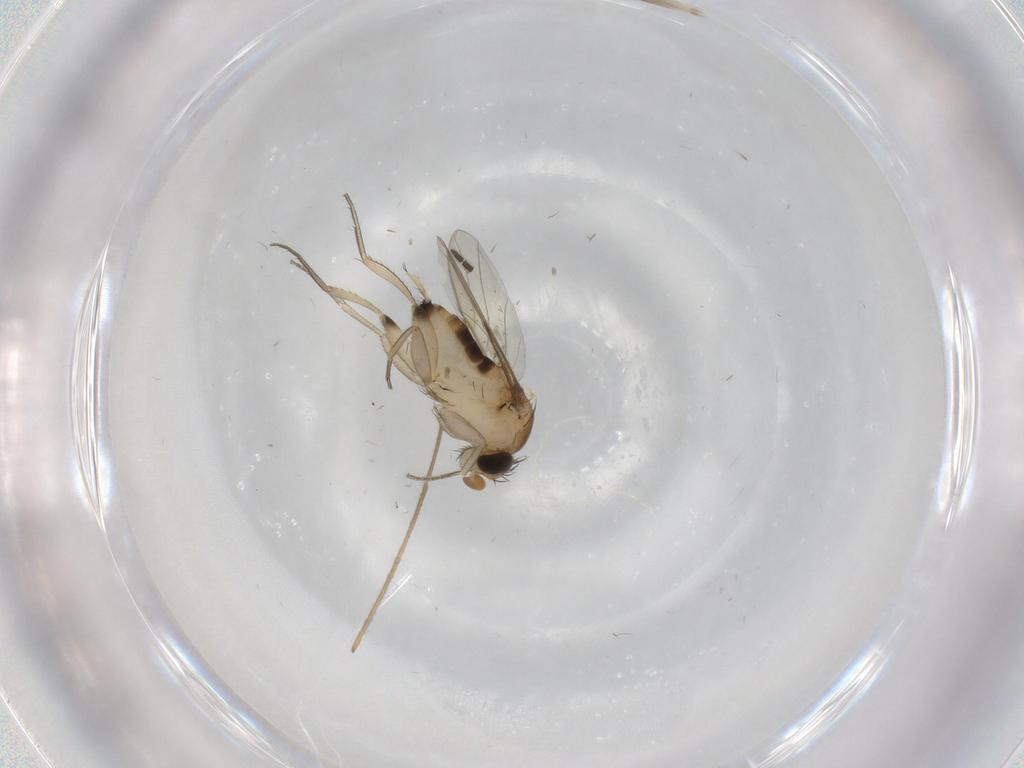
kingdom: Animalia
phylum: Arthropoda
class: Insecta
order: Diptera
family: Phoridae
